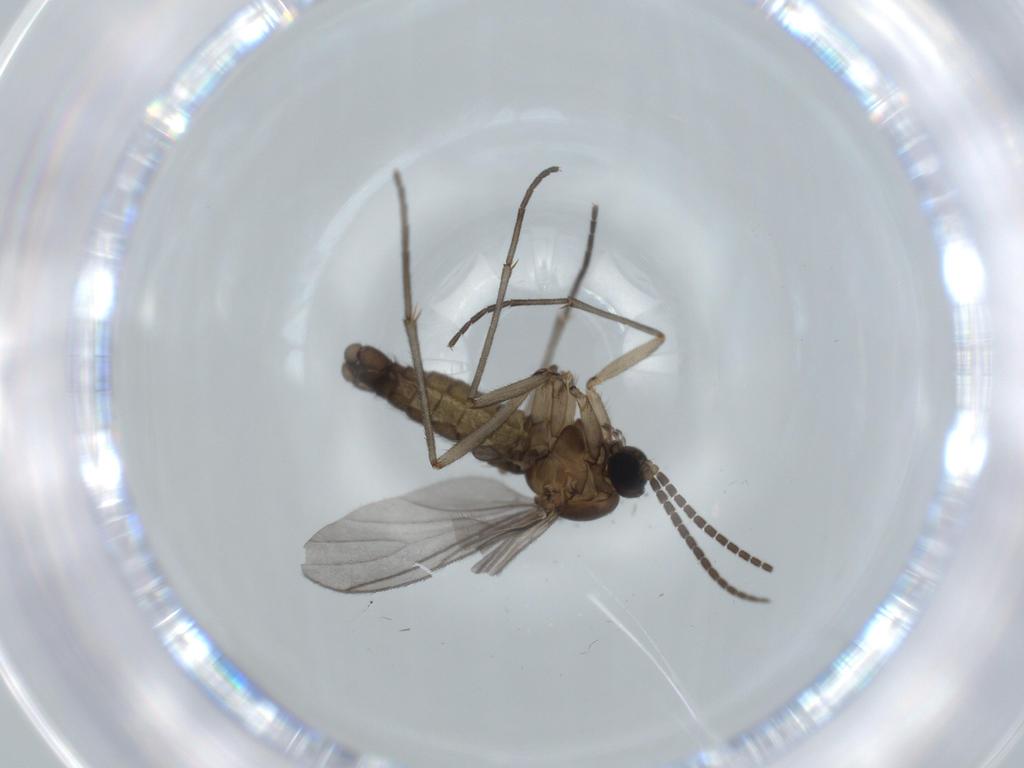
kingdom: Animalia
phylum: Arthropoda
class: Insecta
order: Diptera
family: Sciaridae
